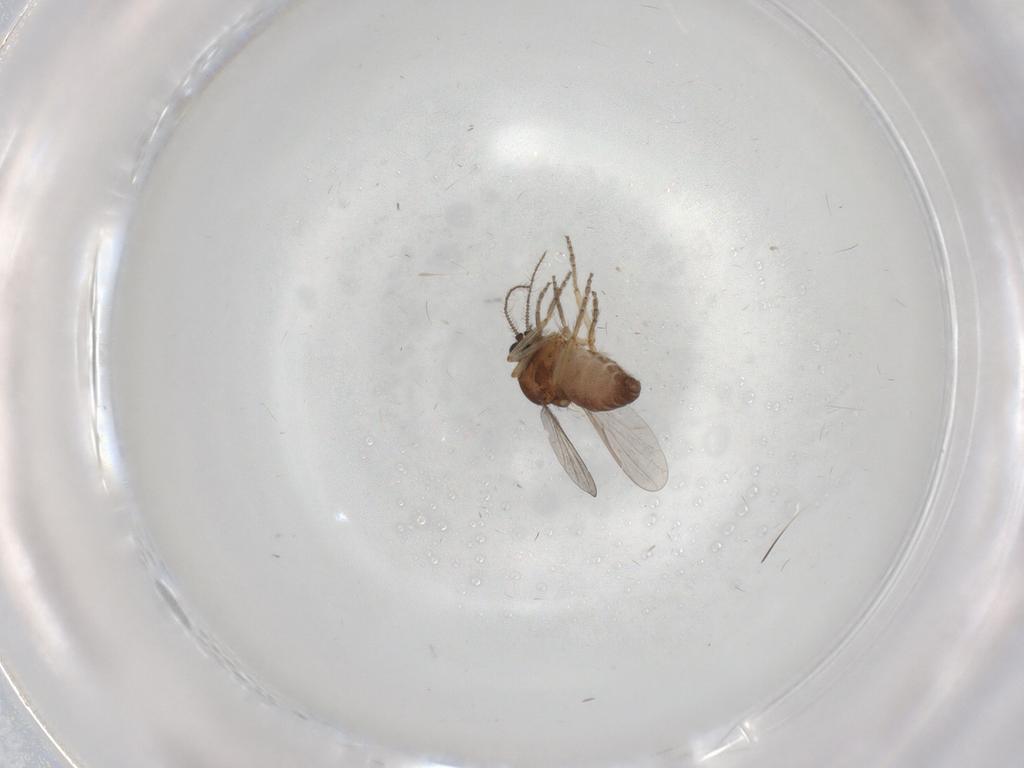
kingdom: Animalia
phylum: Arthropoda
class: Insecta
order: Diptera
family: Ceratopogonidae
